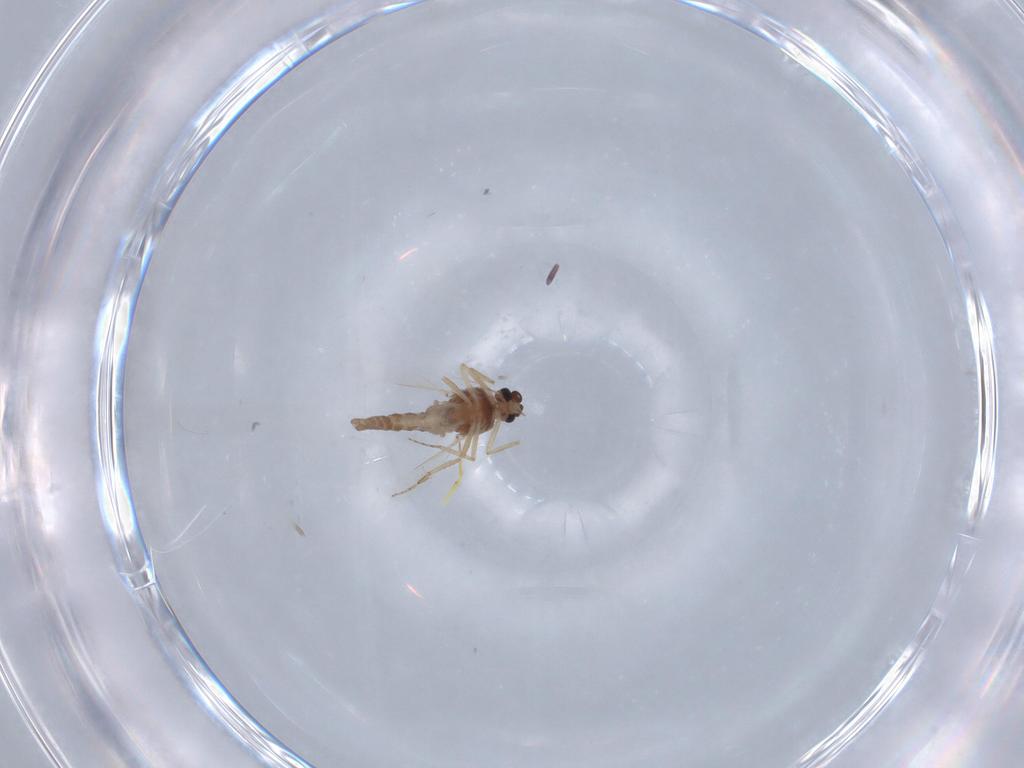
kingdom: Animalia
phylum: Arthropoda
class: Insecta
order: Diptera
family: Ceratopogonidae
